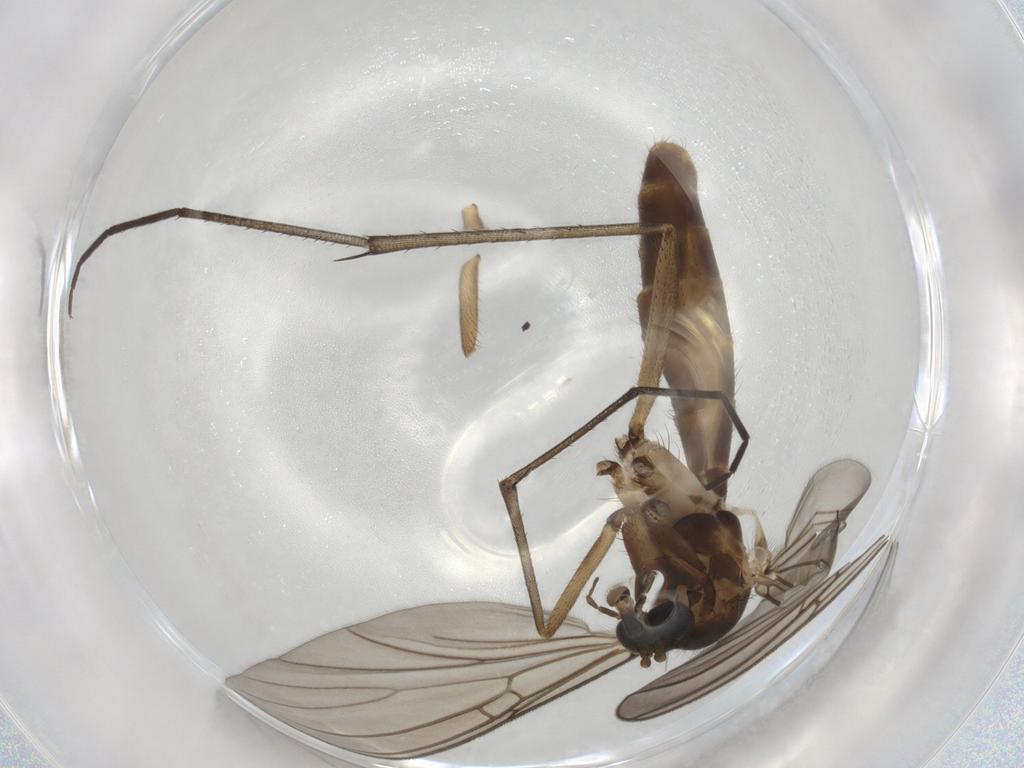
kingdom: Animalia
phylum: Arthropoda
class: Insecta
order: Diptera
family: Mycetophilidae
